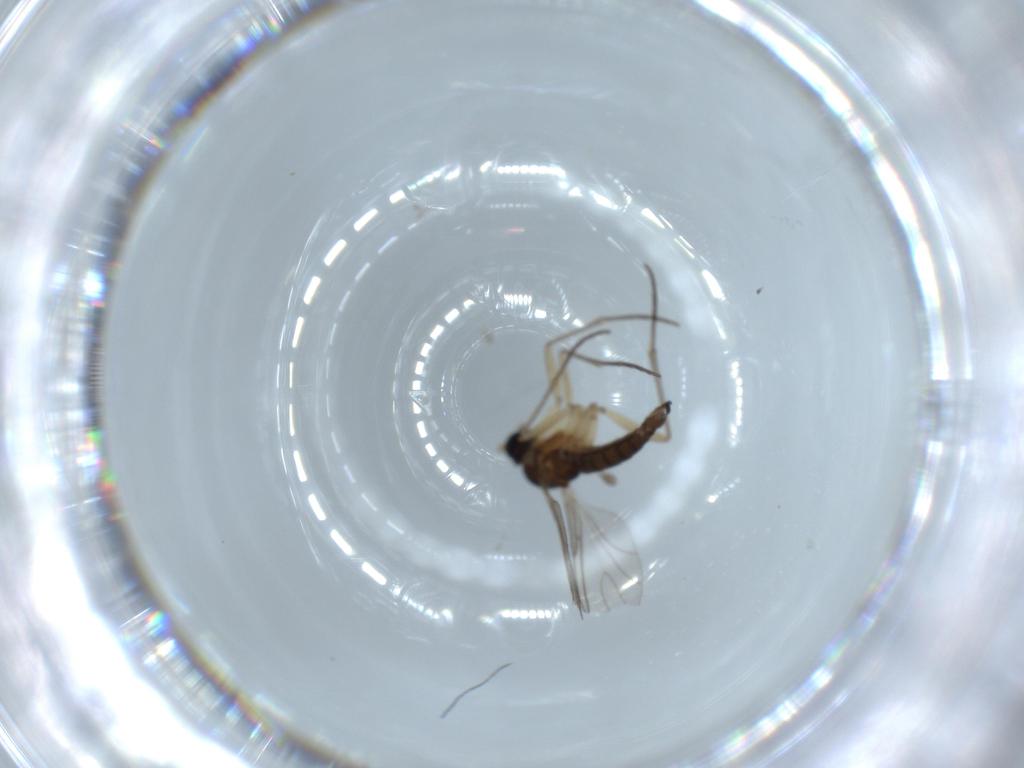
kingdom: Animalia
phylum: Arthropoda
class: Insecta
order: Diptera
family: Sciaridae
